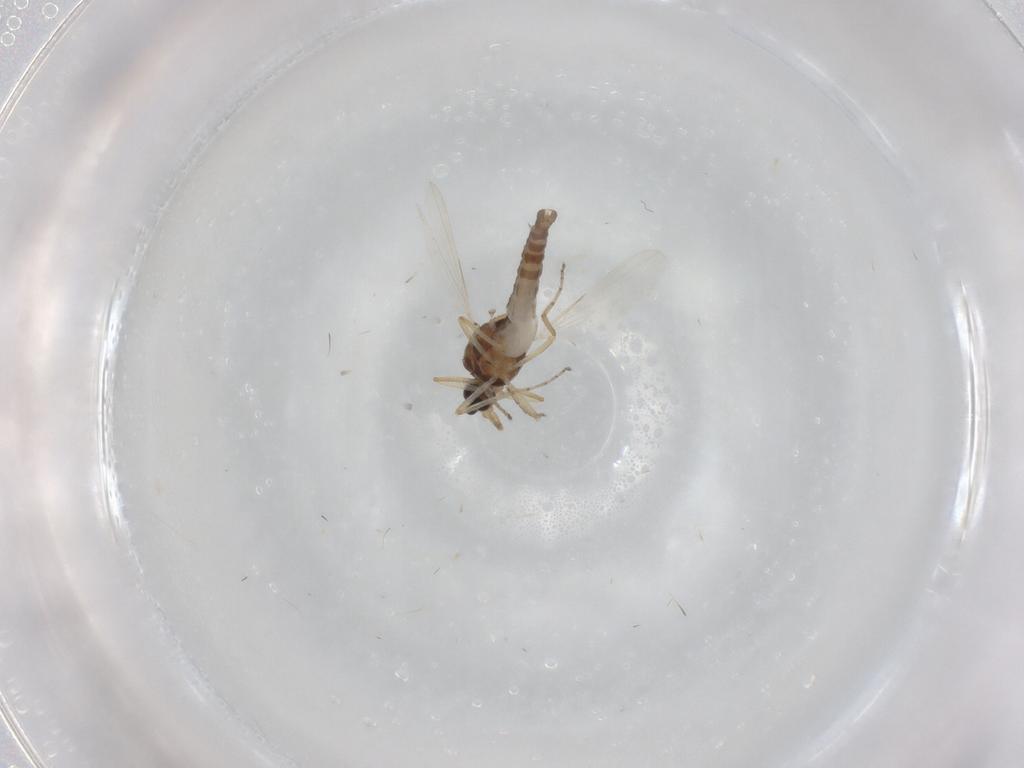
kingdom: Animalia
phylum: Arthropoda
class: Insecta
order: Diptera
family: Ceratopogonidae
